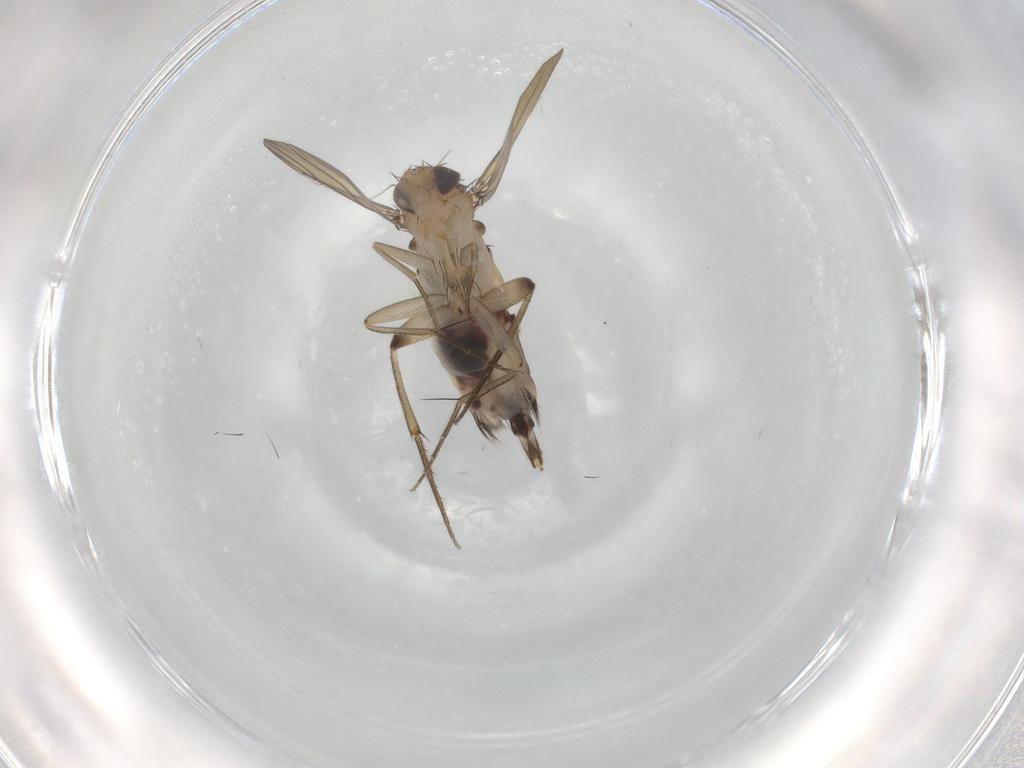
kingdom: Animalia
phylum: Arthropoda
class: Insecta
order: Diptera
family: Phoridae
